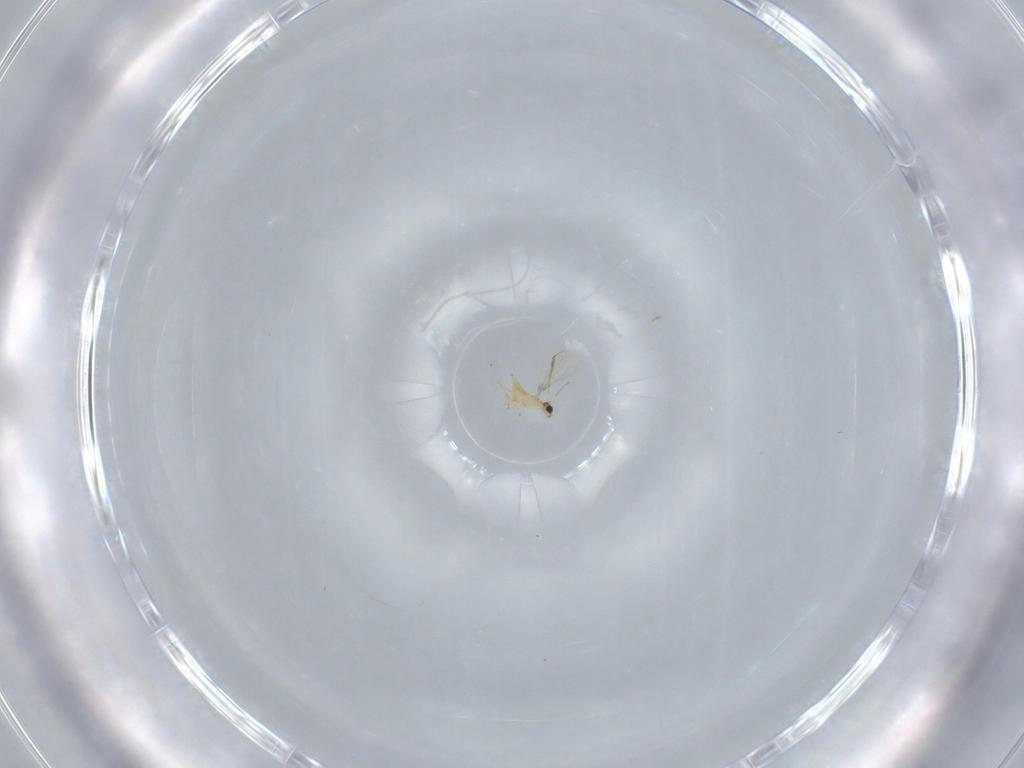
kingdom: Animalia
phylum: Arthropoda
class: Insecta
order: Hymenoptera
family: Mymaridae
